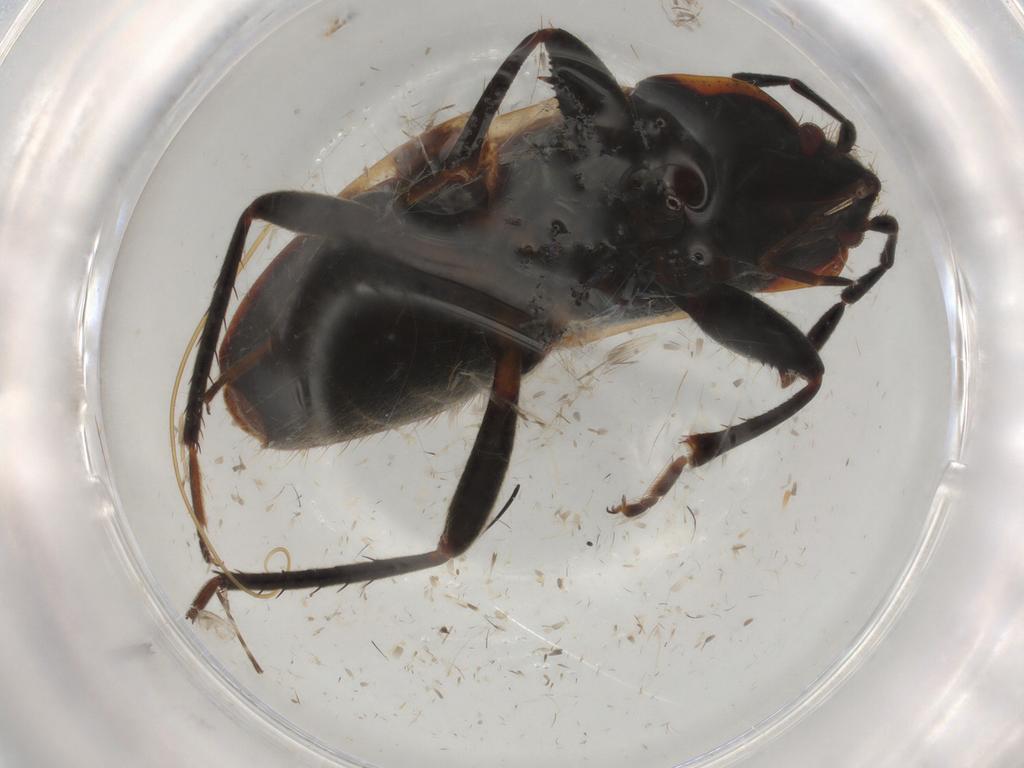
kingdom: Animalia
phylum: Arthropoda
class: Insecta
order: Hemiptera
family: Rhyparochromidae
